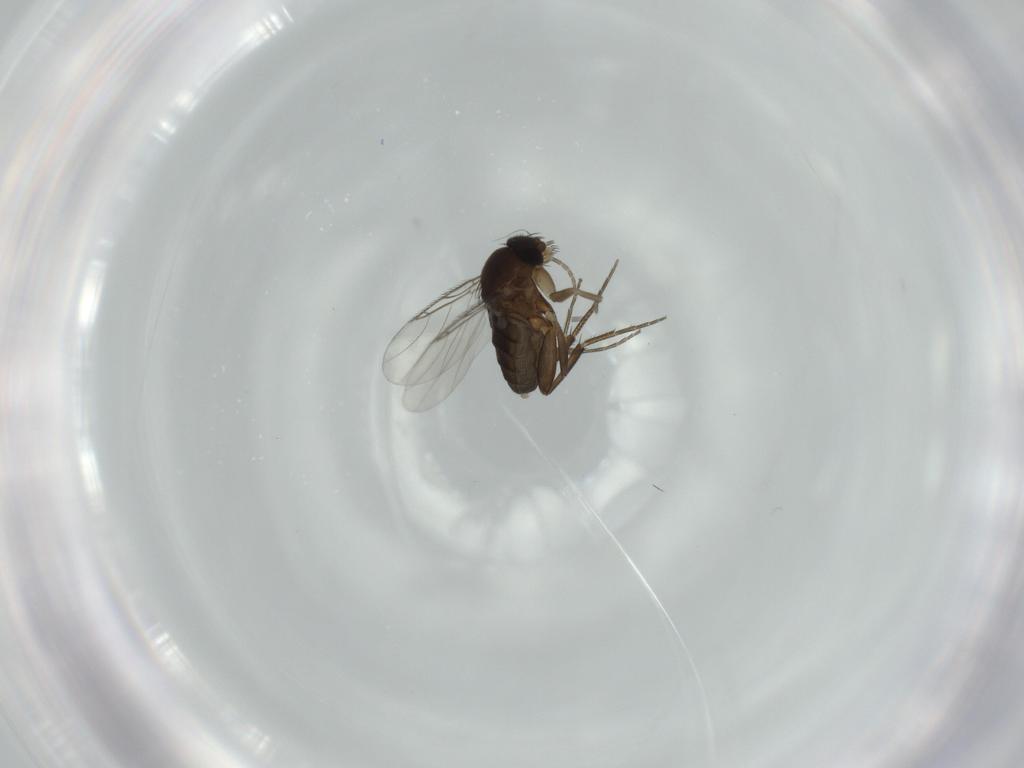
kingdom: Animalia
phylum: Arthropoda
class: Insecta
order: Diptera
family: Phoridae
